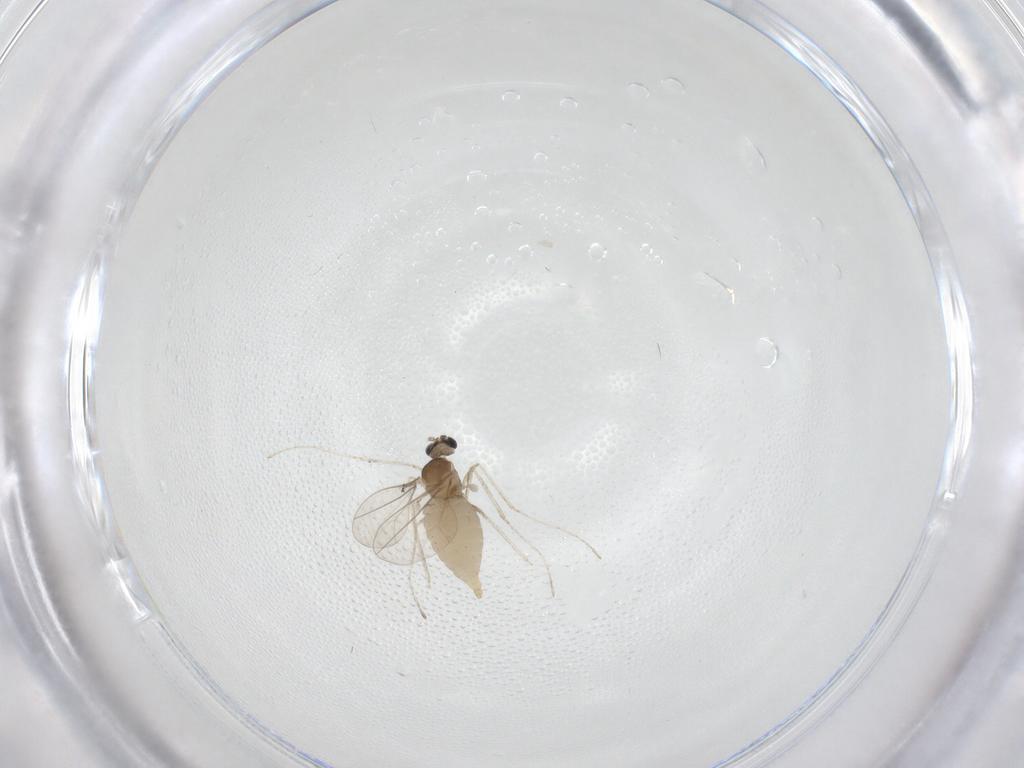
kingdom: Animalia
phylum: Arthropoda
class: Insecta
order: Diptera
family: Cecidomyiidae
